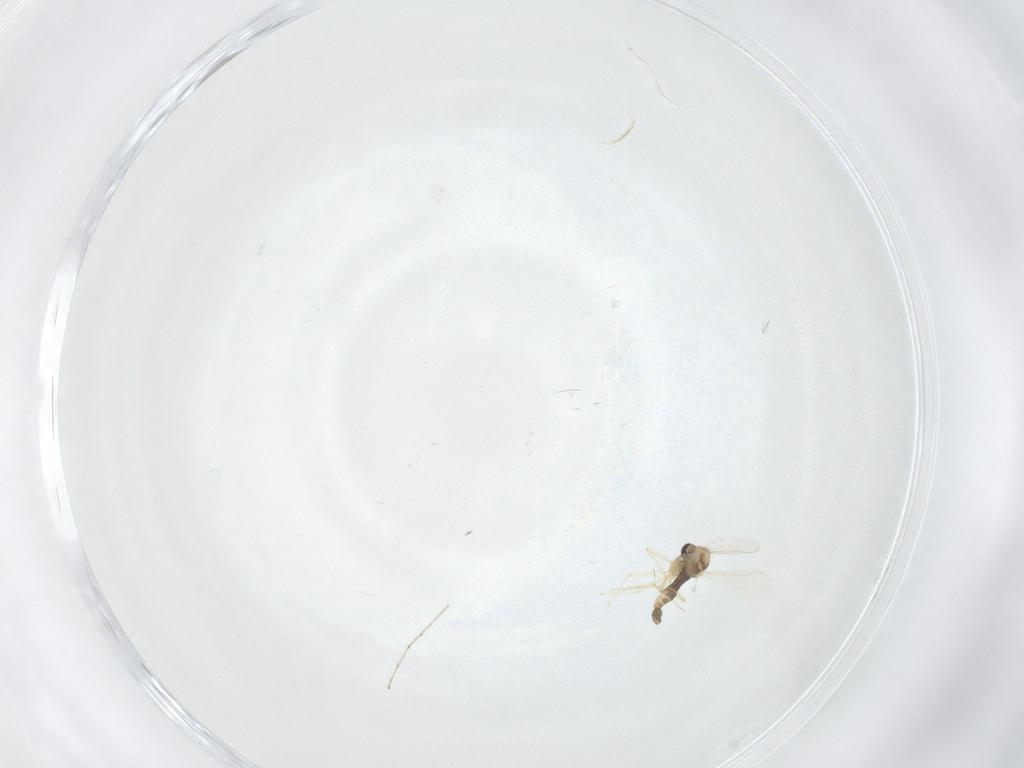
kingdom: Animalia
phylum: Arthropoda
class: Insecta
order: Diptera
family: Chironomidae
